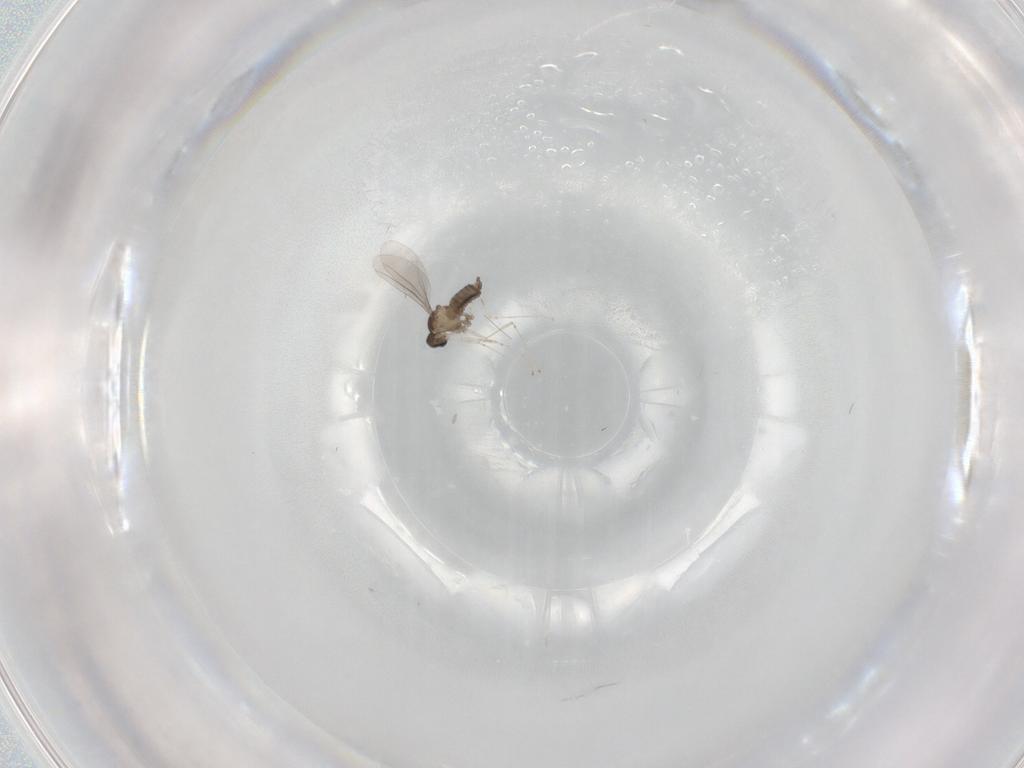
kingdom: Animalia
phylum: Arthropoda
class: Insecta
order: Diptera
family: Cecidomyiidae
